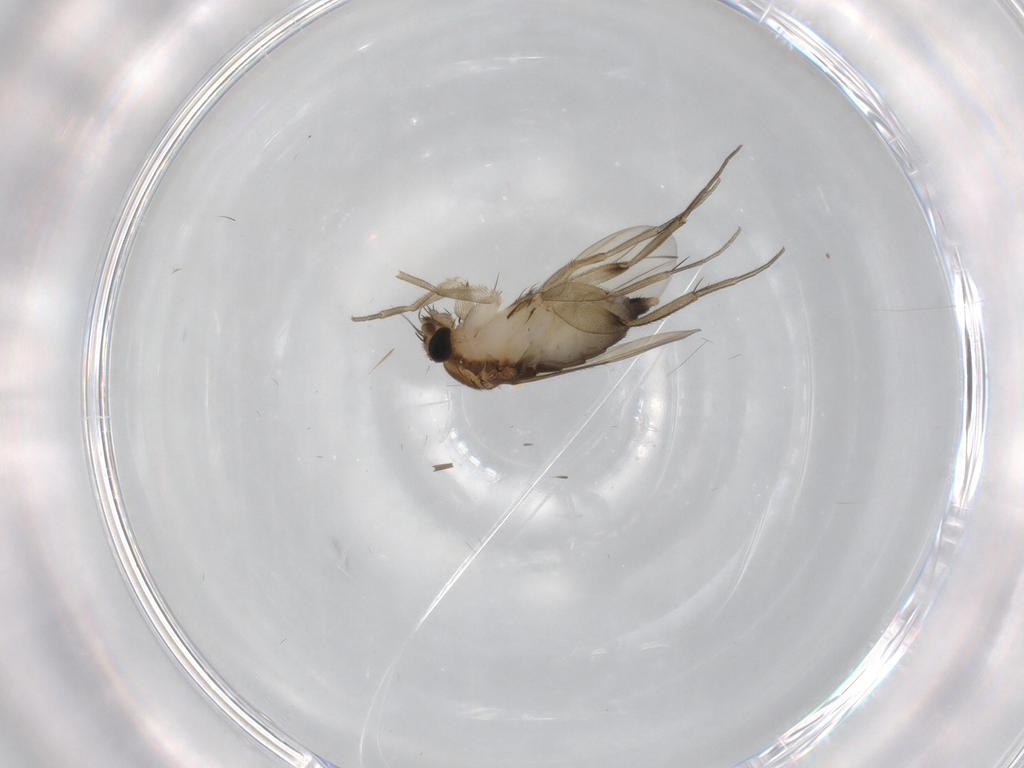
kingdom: Animalia
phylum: Arthropoda
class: Insecta
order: Diptera
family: Phoridae
